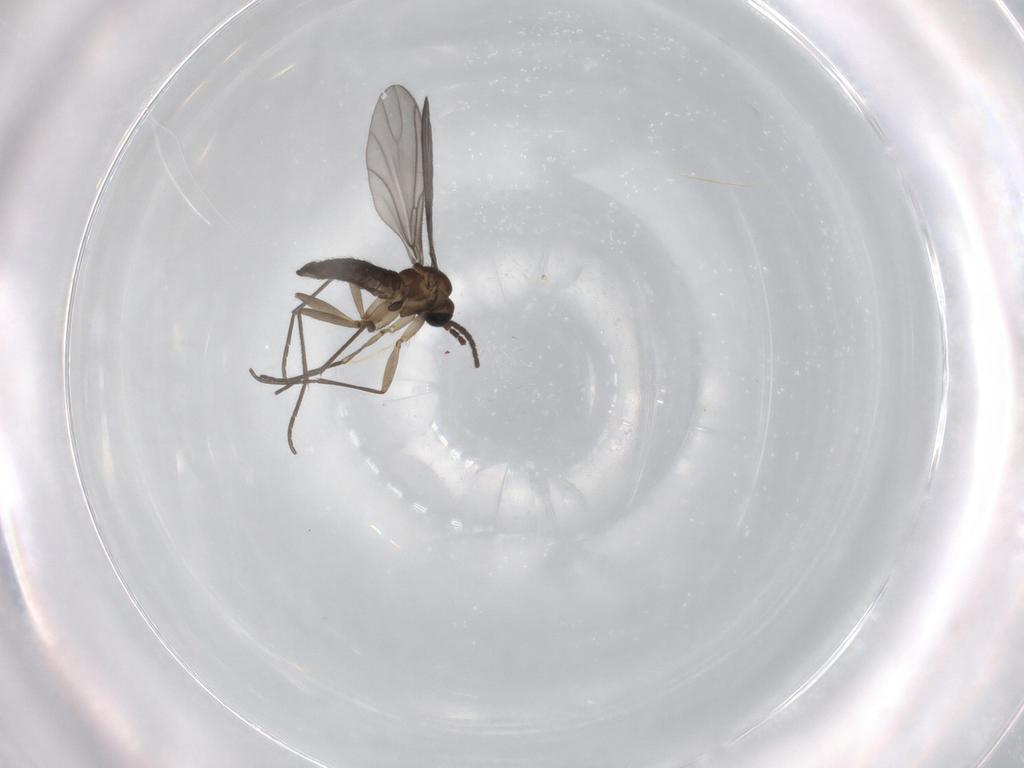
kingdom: Animalia
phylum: Arthropoda
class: Insecta
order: Diptera
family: Sciaridae
